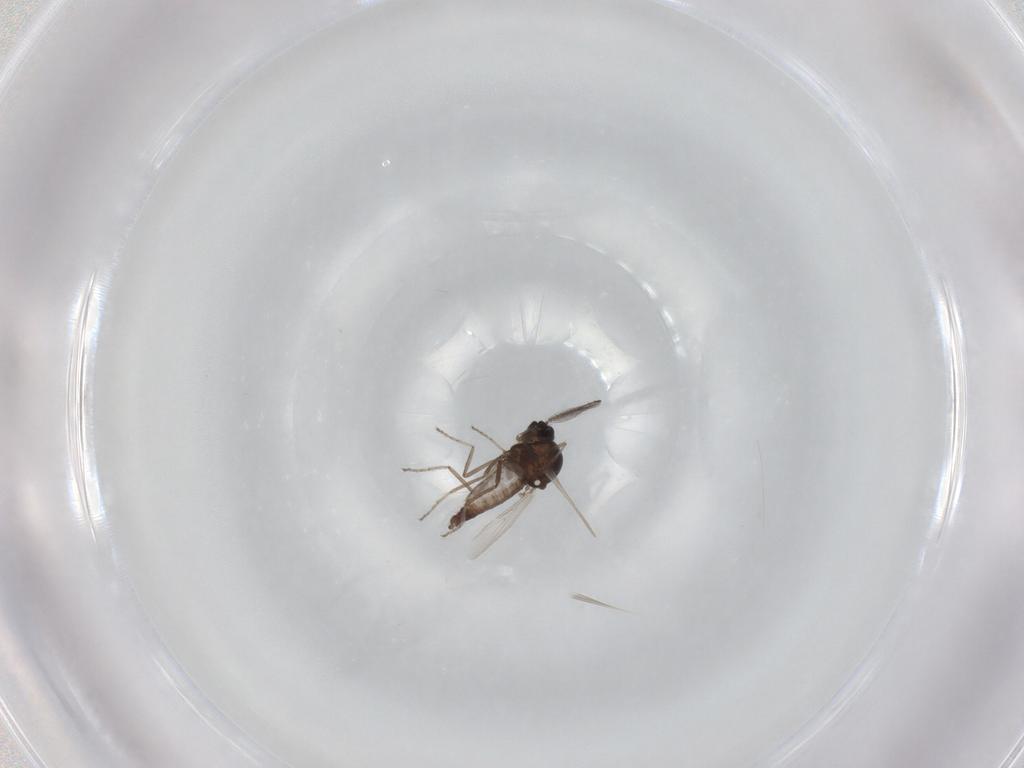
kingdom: Animalia
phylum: Arthropoda
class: Insecta
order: Diptera
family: Ceratopogonidae
